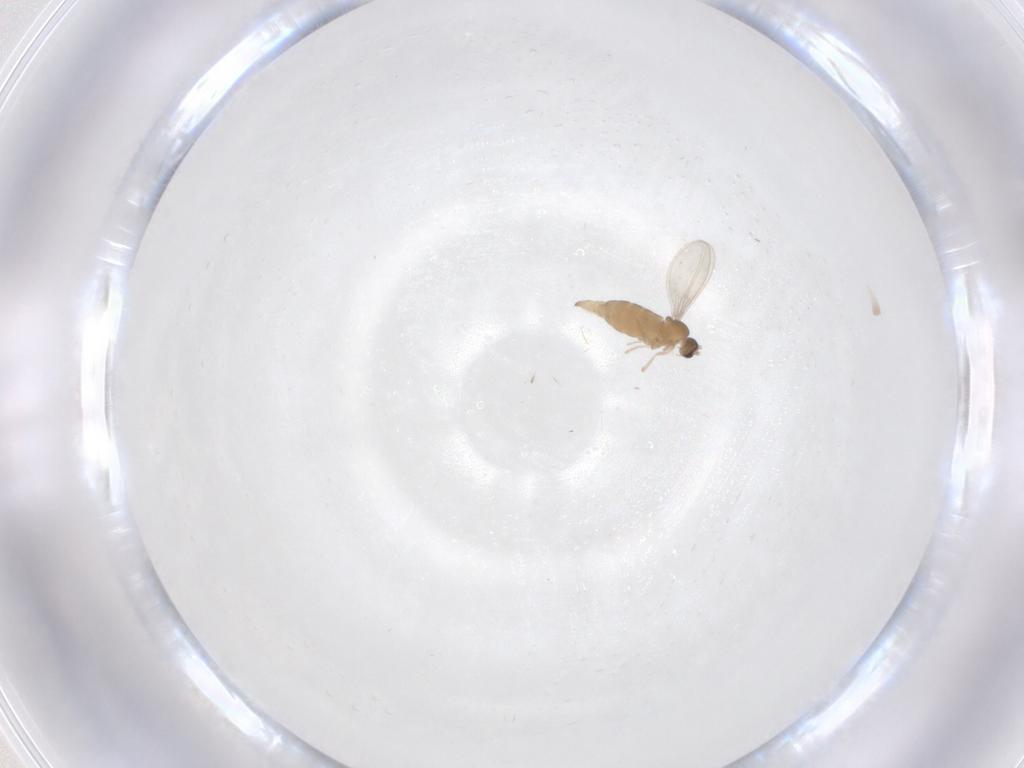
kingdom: Animalia
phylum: Arthropoda
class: Insecta
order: Diptera
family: Cecidomyiidae
